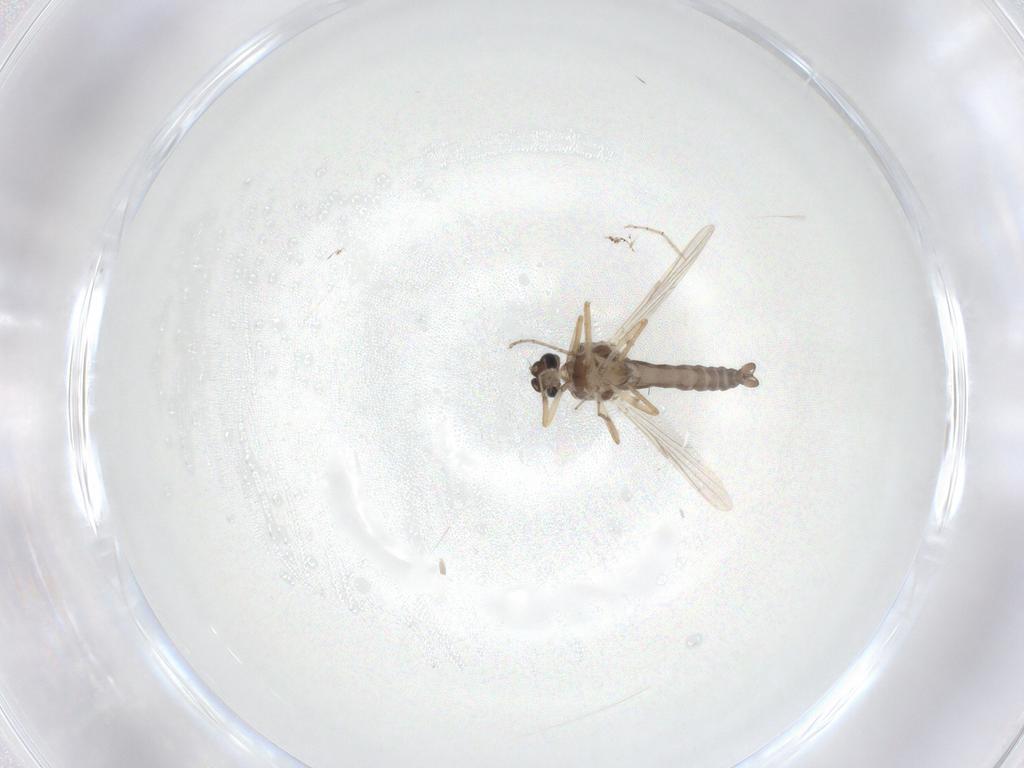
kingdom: Animalia
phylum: Arthropoda
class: Insecta
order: Diptera
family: Ceratopogonidae
